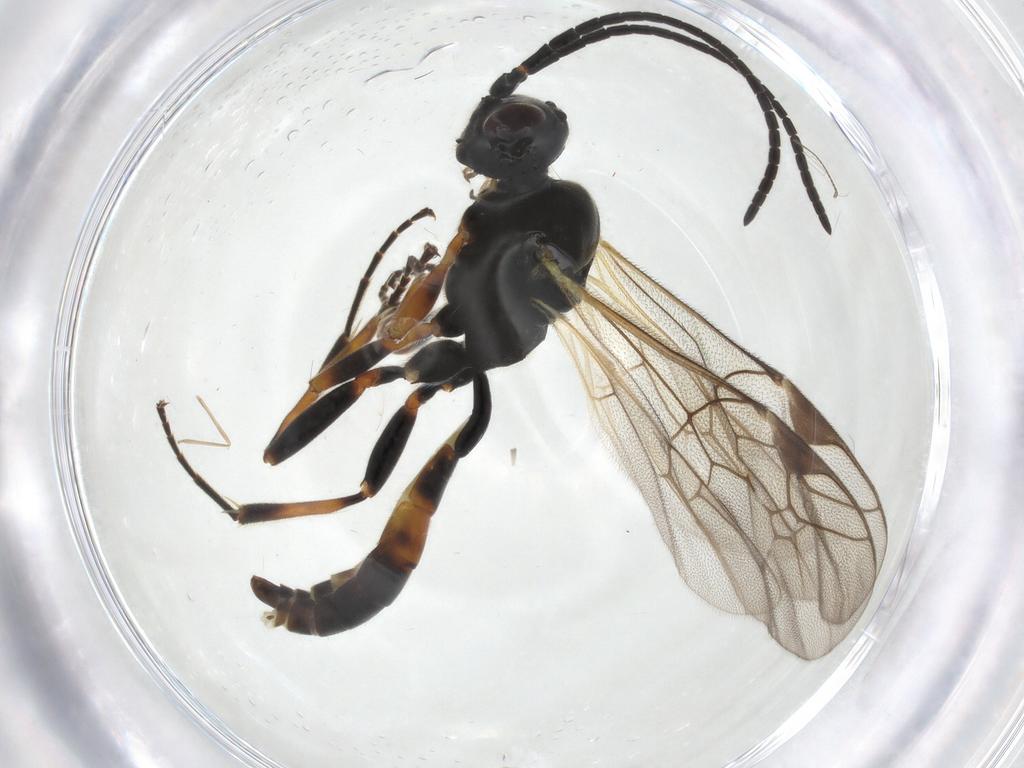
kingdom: Animalia
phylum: Arthropoda
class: Insecta
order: Hymenoptera
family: Ichneumonidae
